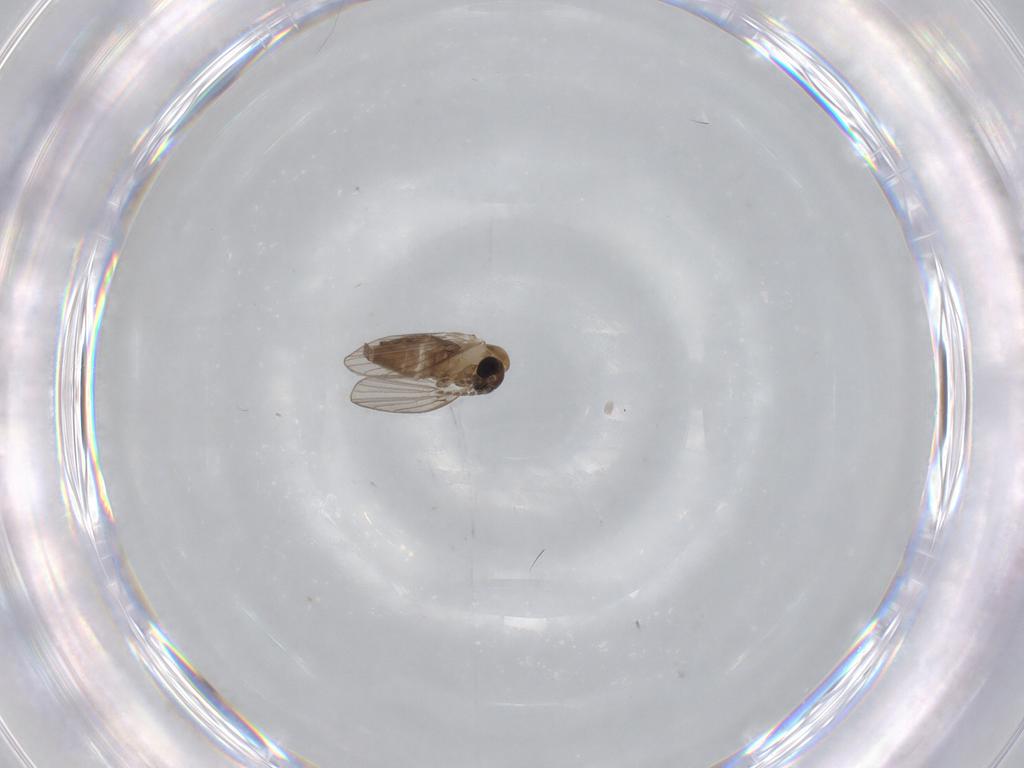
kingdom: Animalia
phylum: Arthropoda
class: Insecta
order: Diptera
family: Psychodidae
